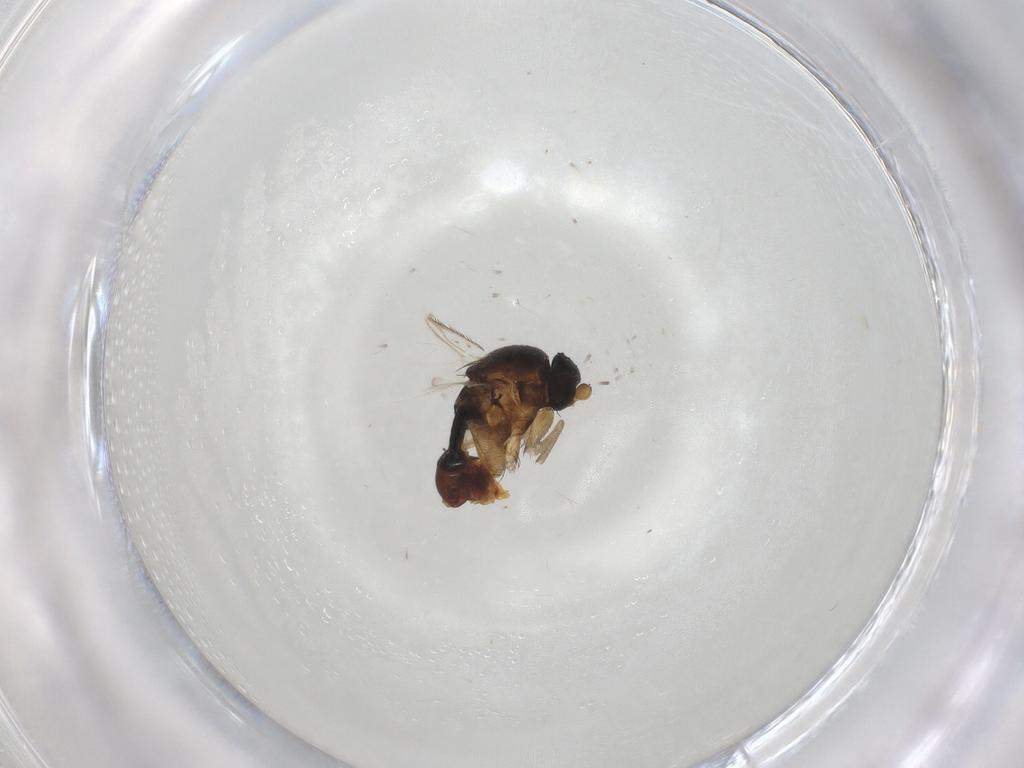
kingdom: Animalia
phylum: Arthropoda
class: Insecta
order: Diptera
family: Phoridae
